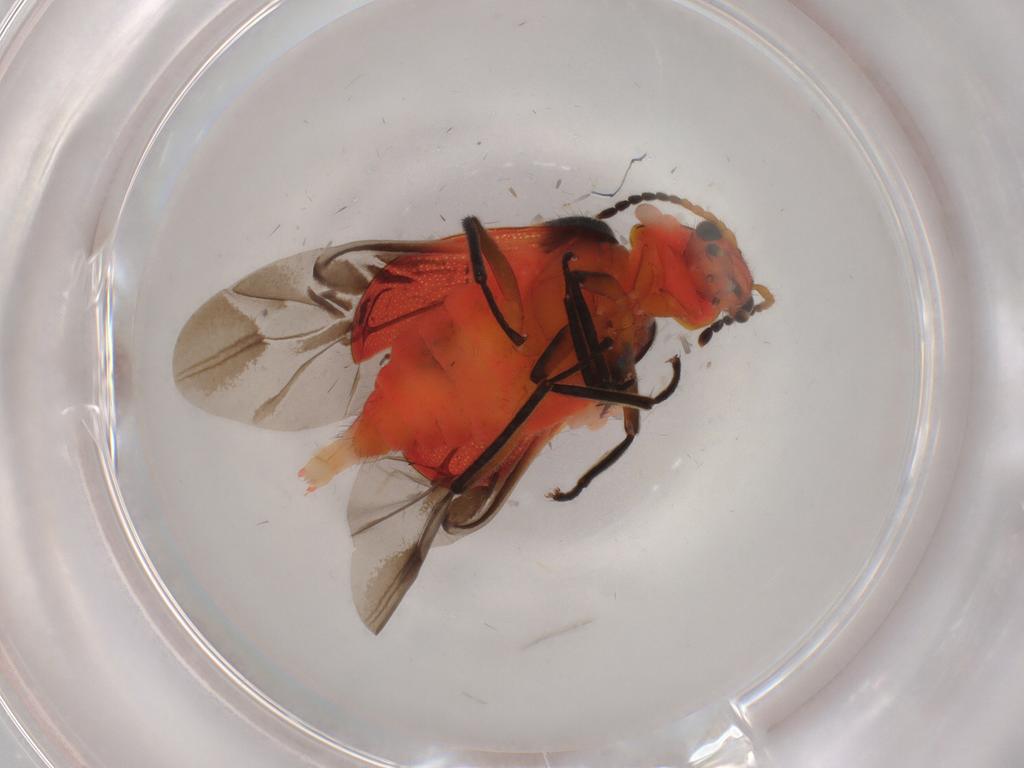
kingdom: Animalia
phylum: Arthropoda
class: Insecta
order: Coleoptera
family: Melyridae
